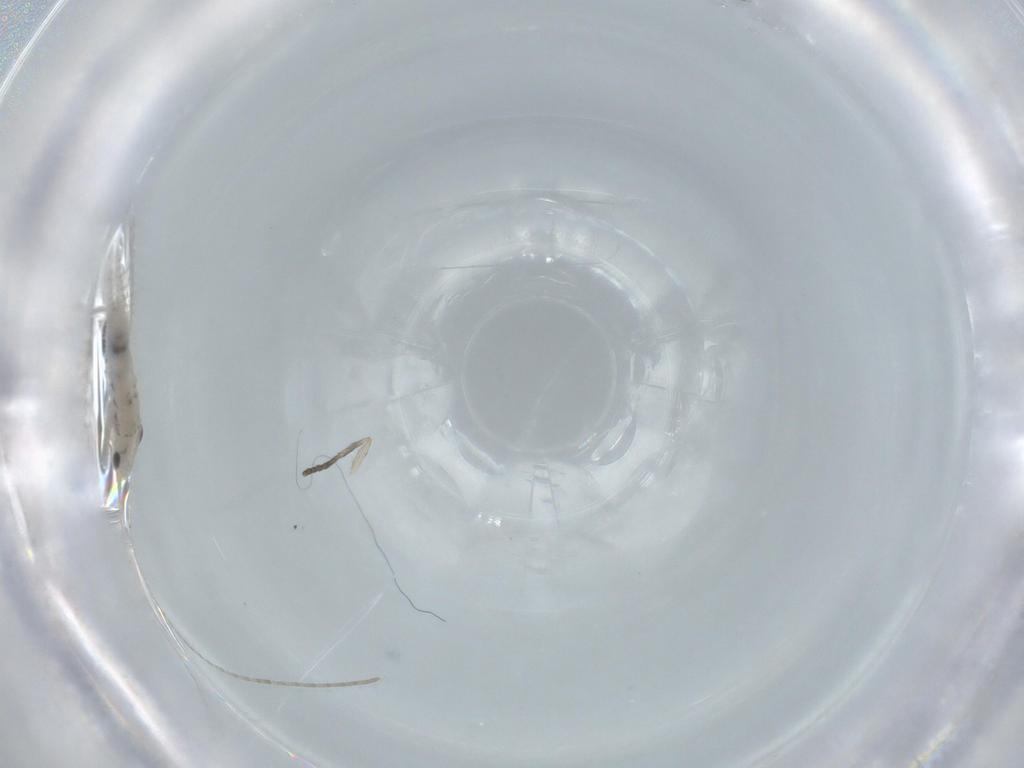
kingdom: Animalia
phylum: Arthropoda
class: Insecta
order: Orthoptera
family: Trigonidiidae
